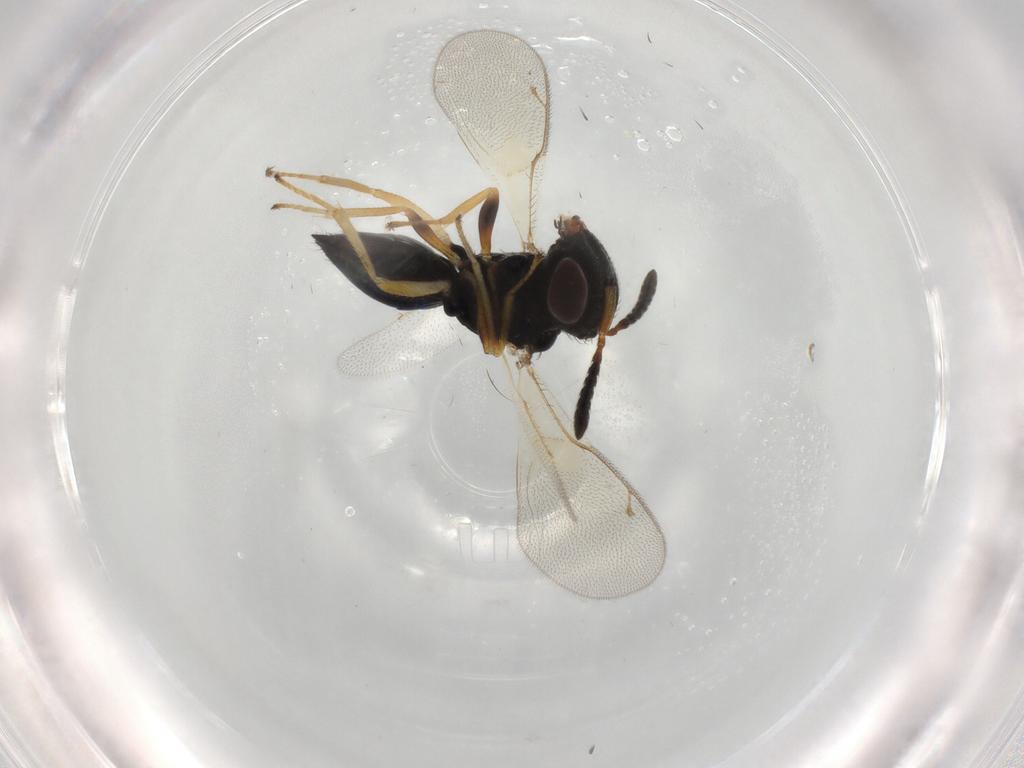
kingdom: Animalia
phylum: Arthropoda
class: Insecta
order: Hymenoptera
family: Pteromalidae
